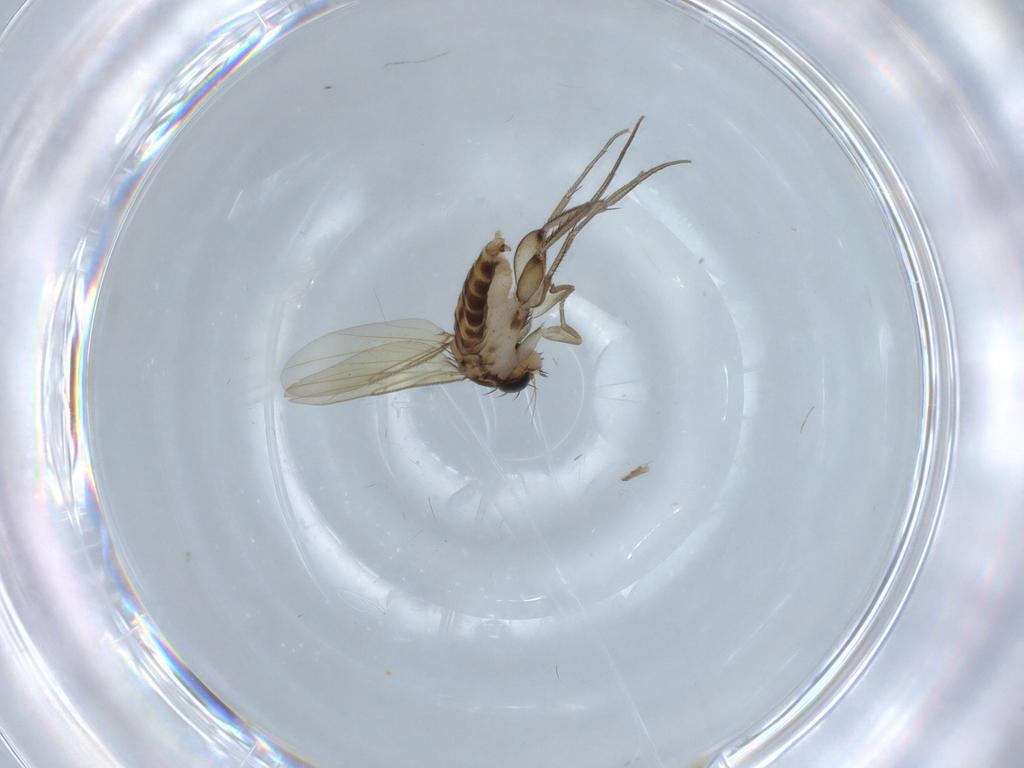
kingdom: Animalia
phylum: Arthropoda
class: Insecta
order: Diptera
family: Phoridae
